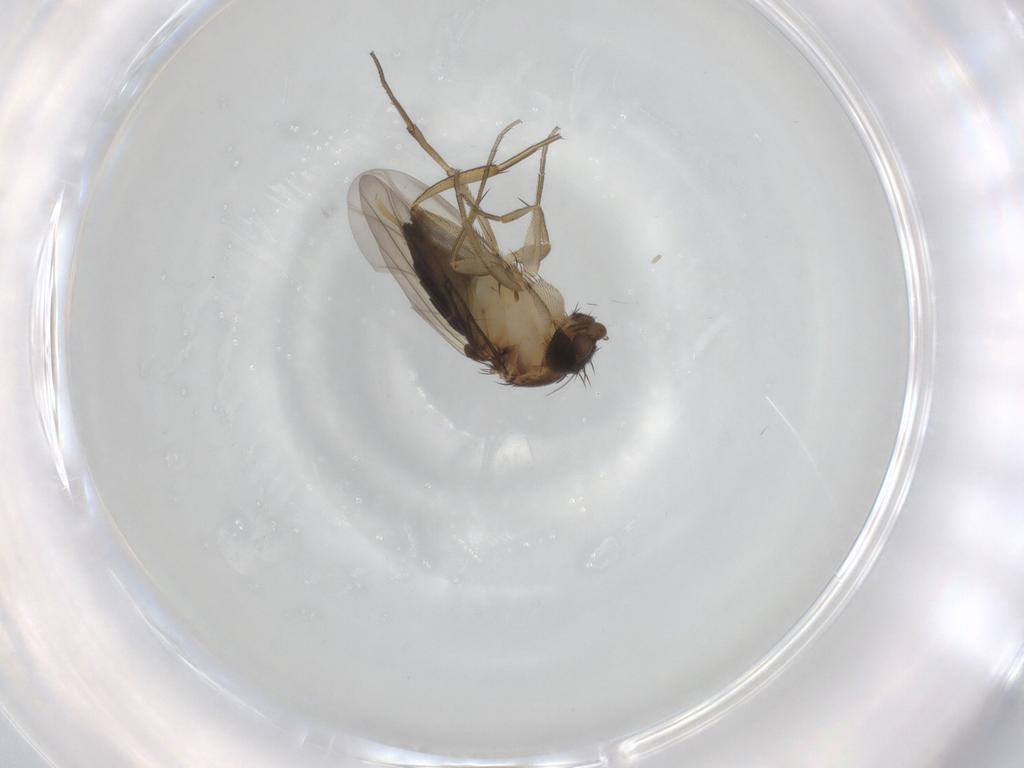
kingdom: Animalia
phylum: Arthropoda
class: Insecta
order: Diptera
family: Phoridae
